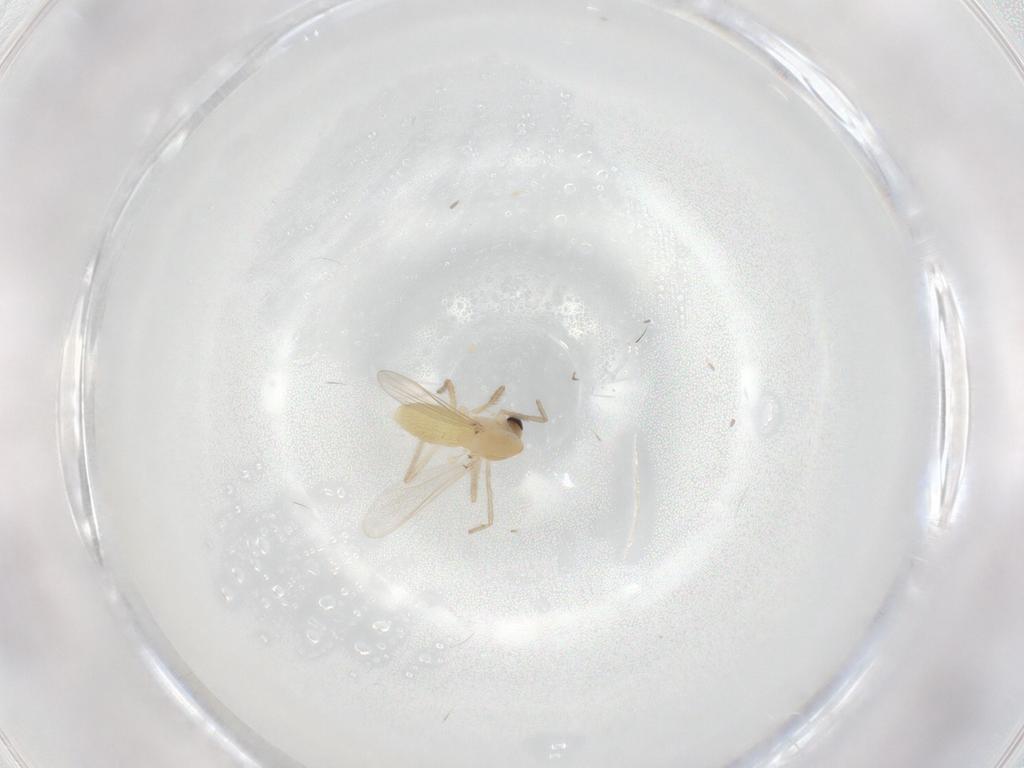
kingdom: Animalia
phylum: Arthropoda
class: Insecta
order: Diptera
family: Chironomidae
